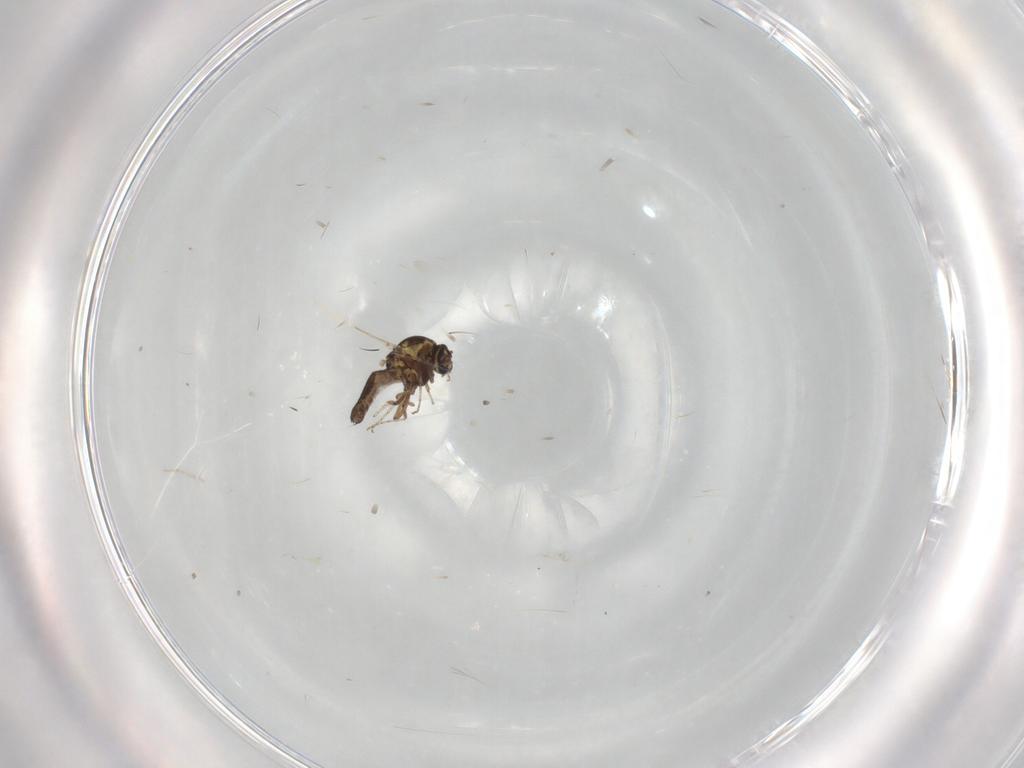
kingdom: Animalia
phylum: Arthropoda
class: Insecta
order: Diptera
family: Ceratopogonidae
